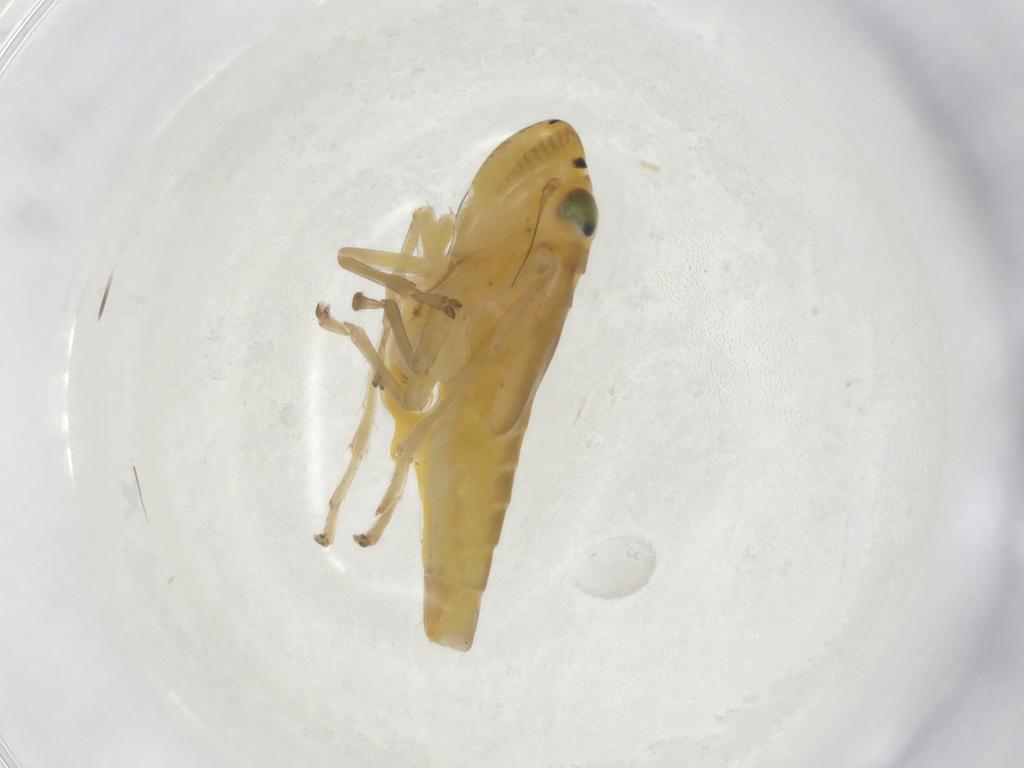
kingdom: Animalia
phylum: Arthropoda
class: Insecta
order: Hemiptera
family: Cicadellidae
